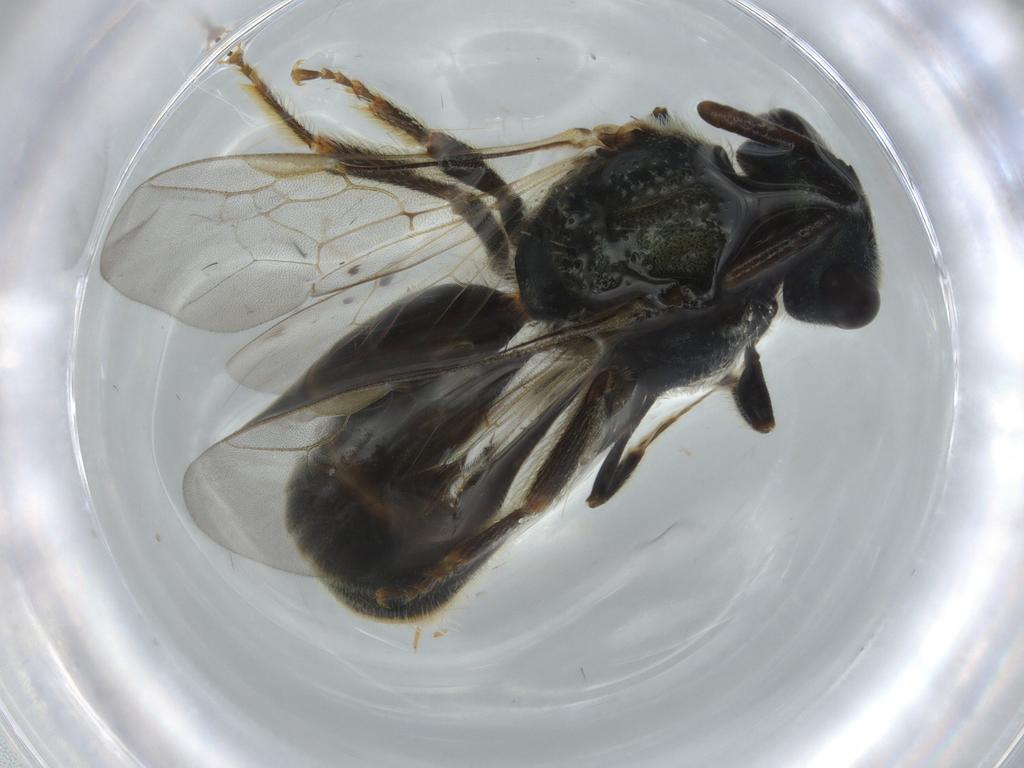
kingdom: Animalia
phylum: Arthropoda
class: Insecta
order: Hymenoptera
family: Halictidae
